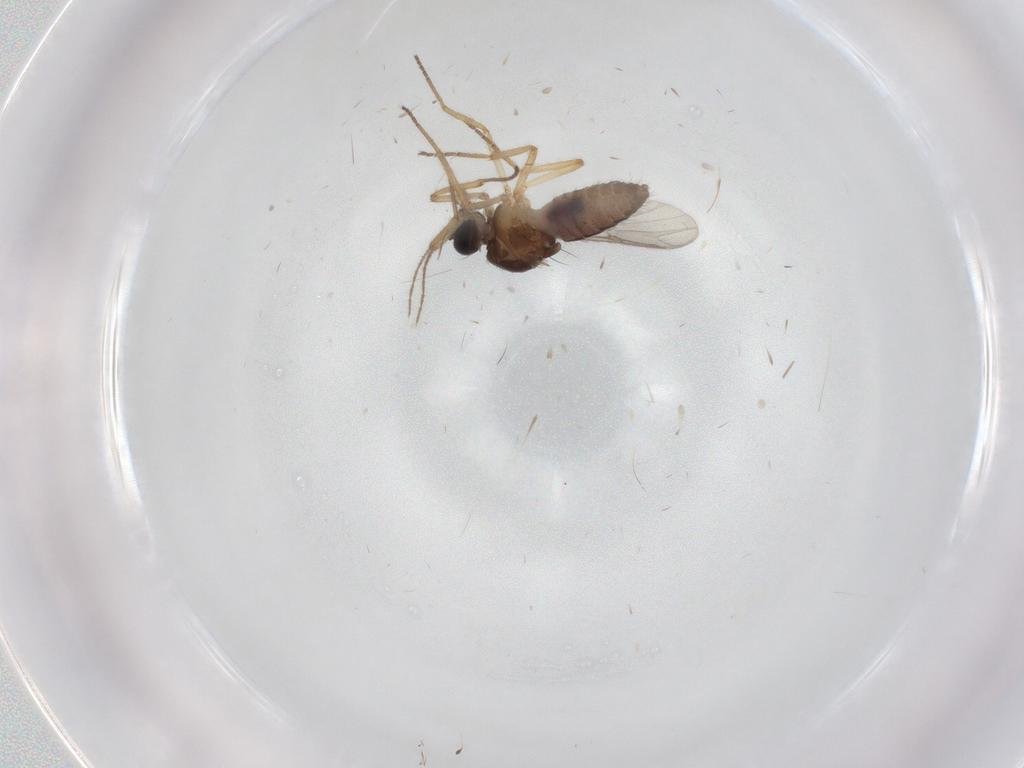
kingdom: Animalia
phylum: Arthropoda
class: Insecta
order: Diptera
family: Ceratopogonidae
